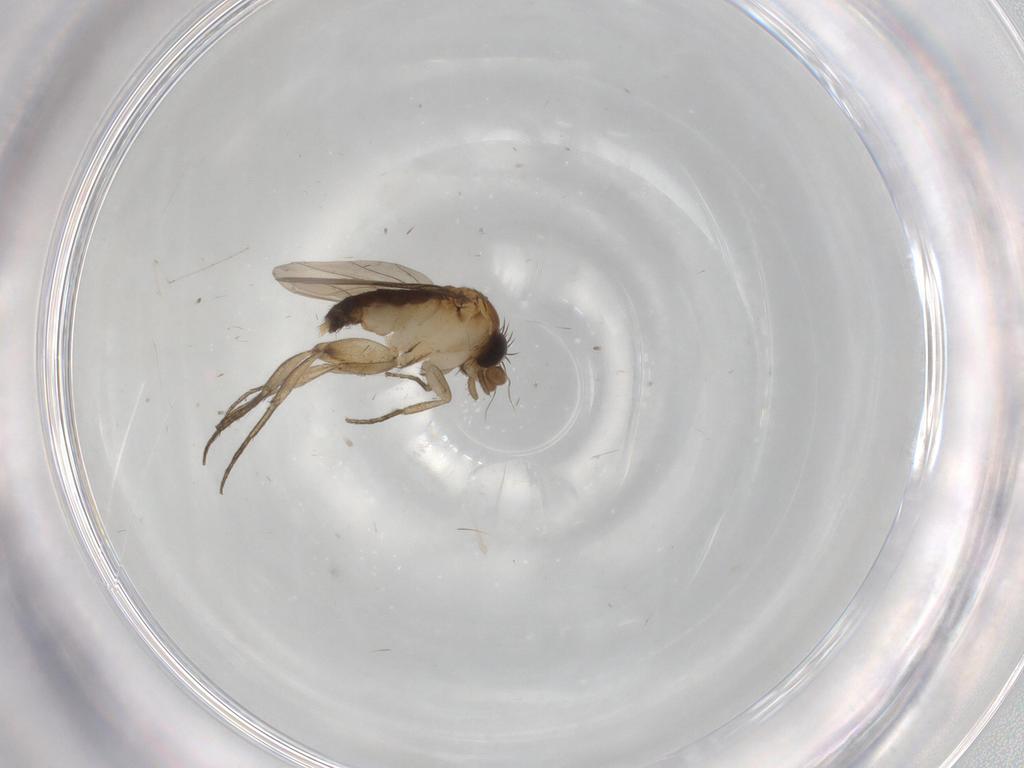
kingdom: Animalia
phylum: Arthropoda
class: Insecta
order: Diptera
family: Phoridae
